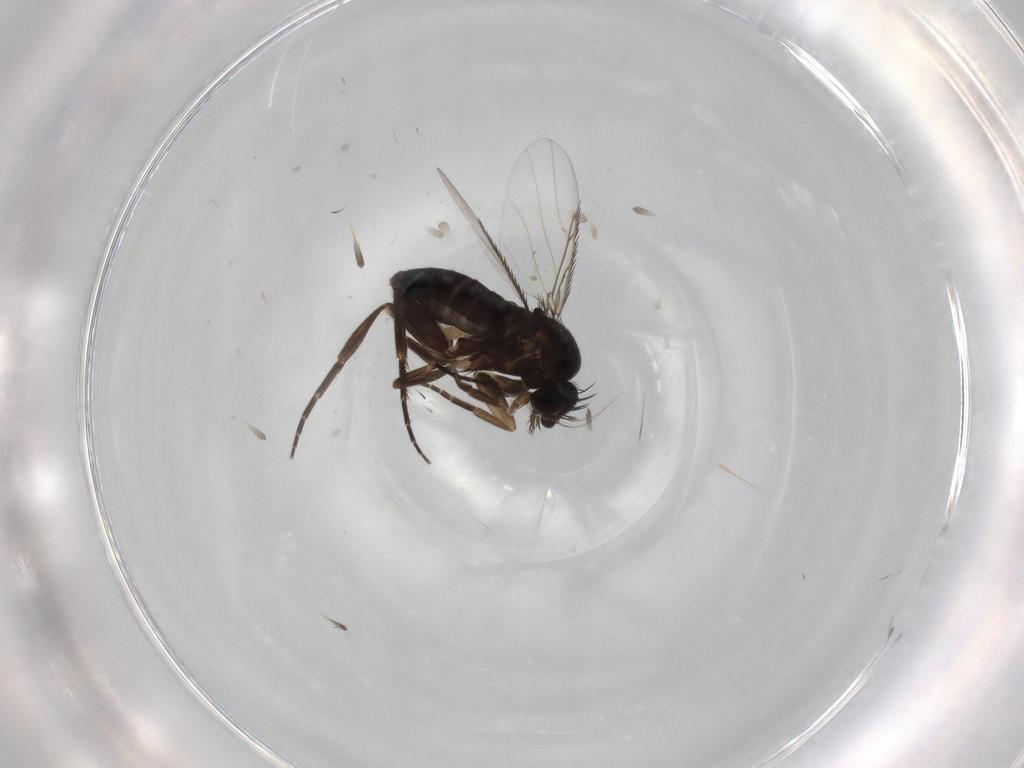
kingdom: Animalia
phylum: Arthropoda
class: Insecta
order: Diptera
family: Phoridae
